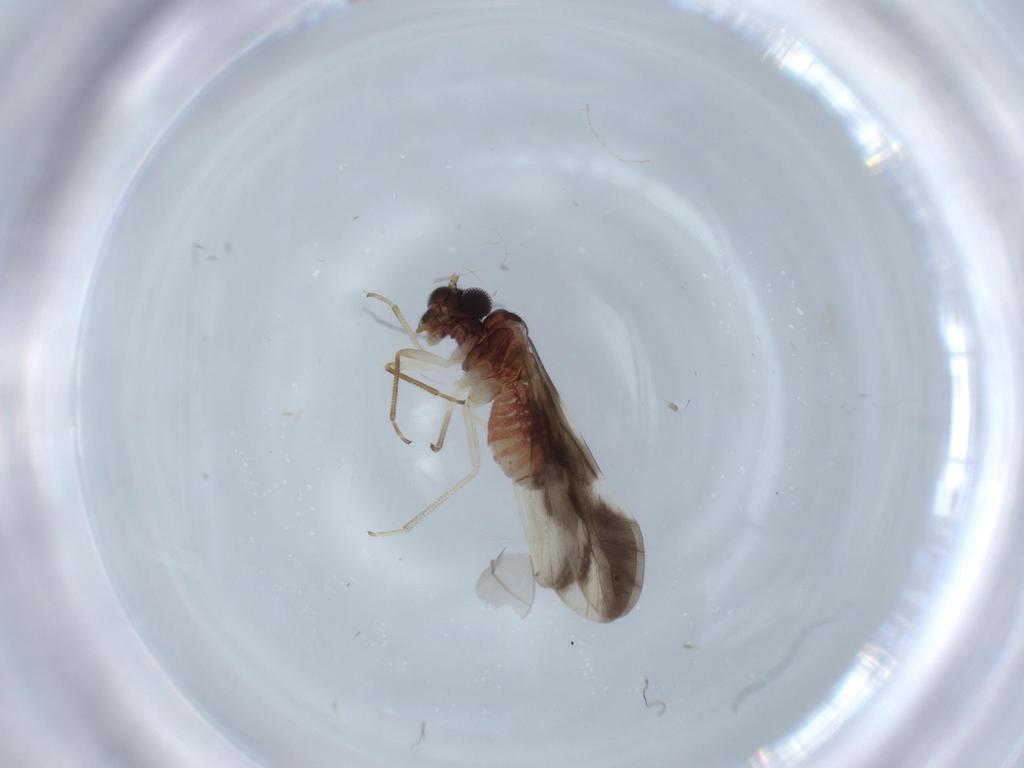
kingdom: Animalia
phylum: Arthropoda
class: Insecta
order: Psocodea
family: Caeciliusidae
